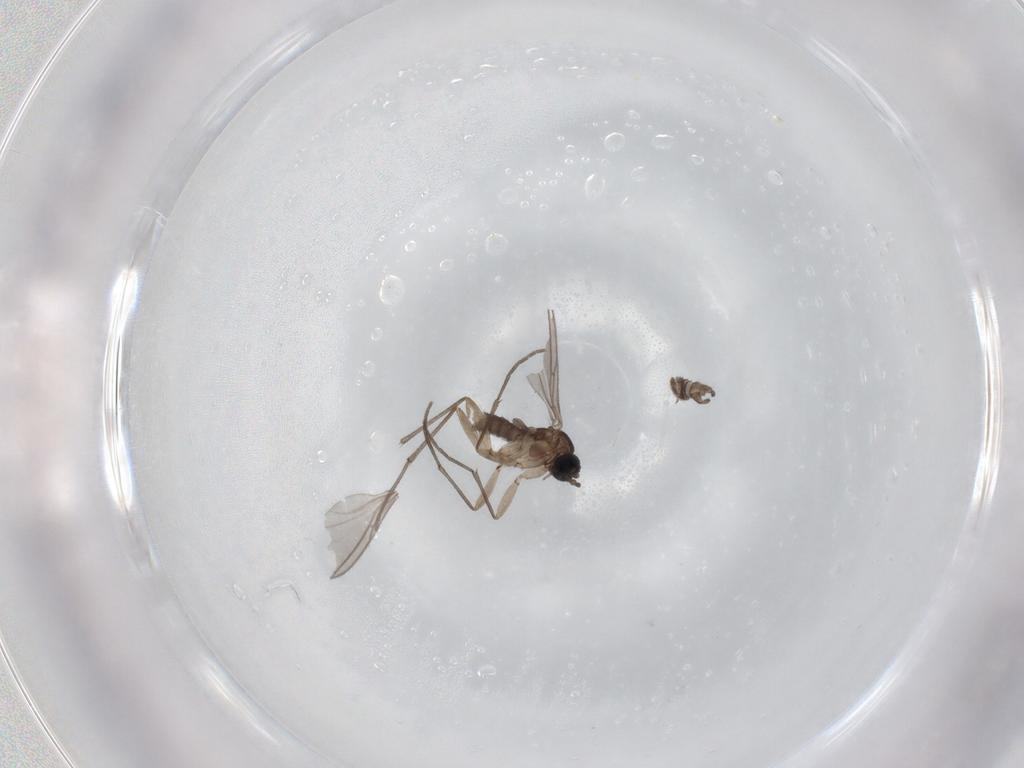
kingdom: Animalia
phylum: Arthropoda
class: Insecta
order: Diptera
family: Sciaridae
